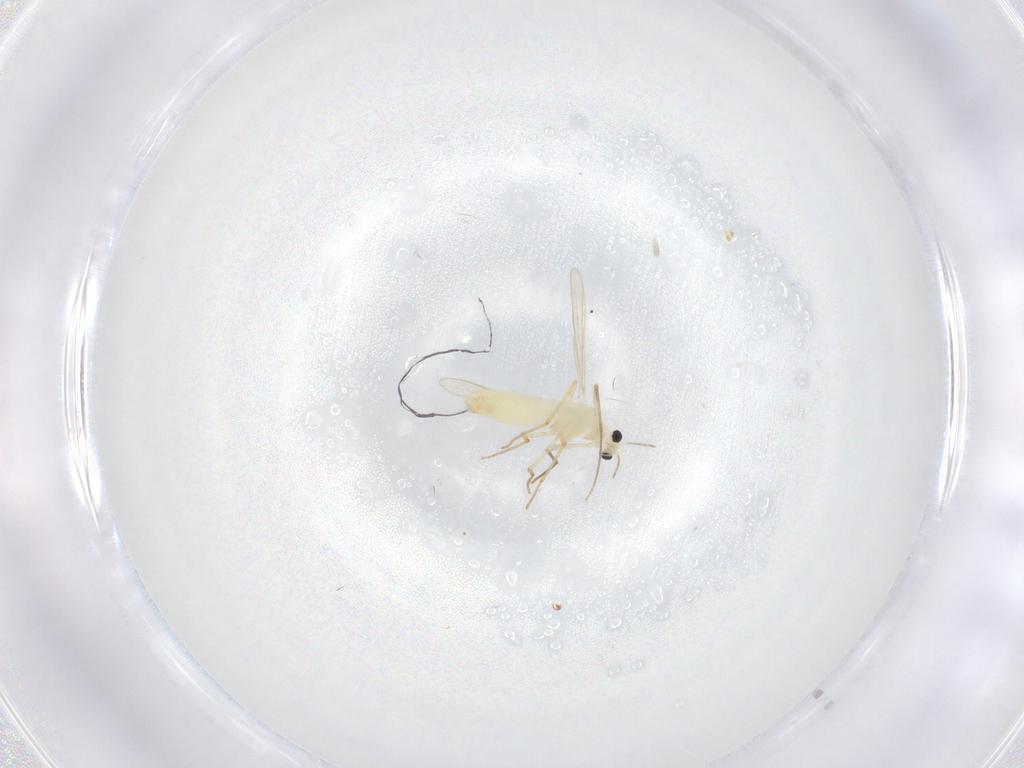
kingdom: Animalia
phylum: Arthropoda
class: Insecta
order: Diptera
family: Chironomidae
